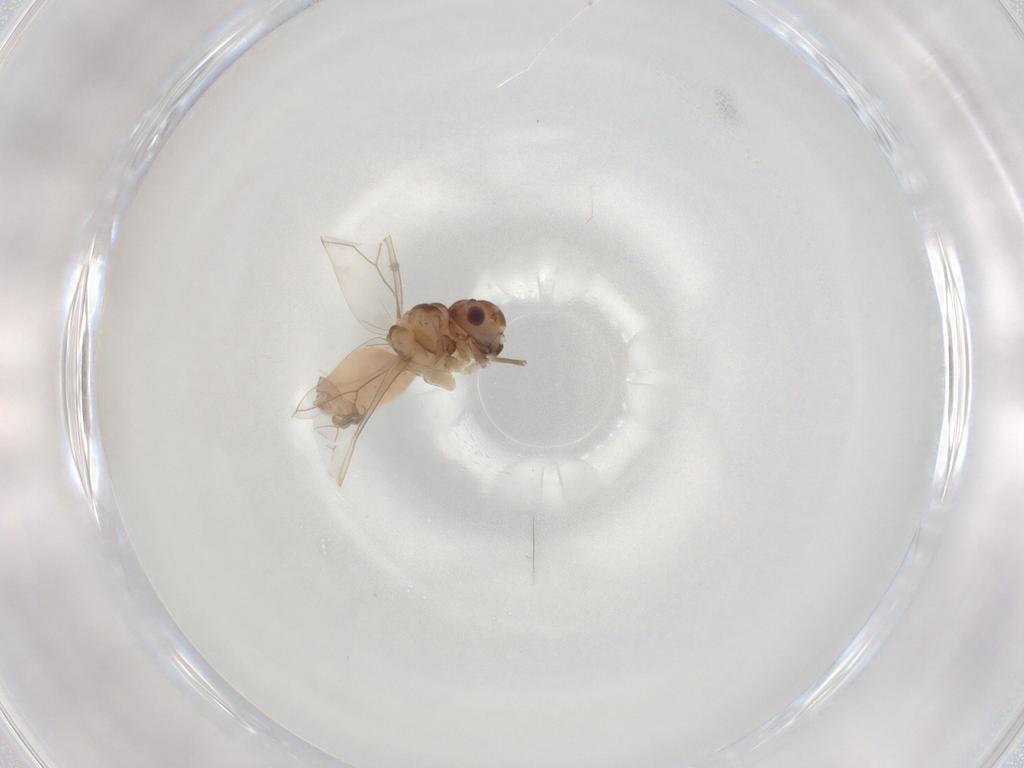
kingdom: Animalia
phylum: Arthropoda
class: Insecta
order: Psocodea
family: Peripsocidae
